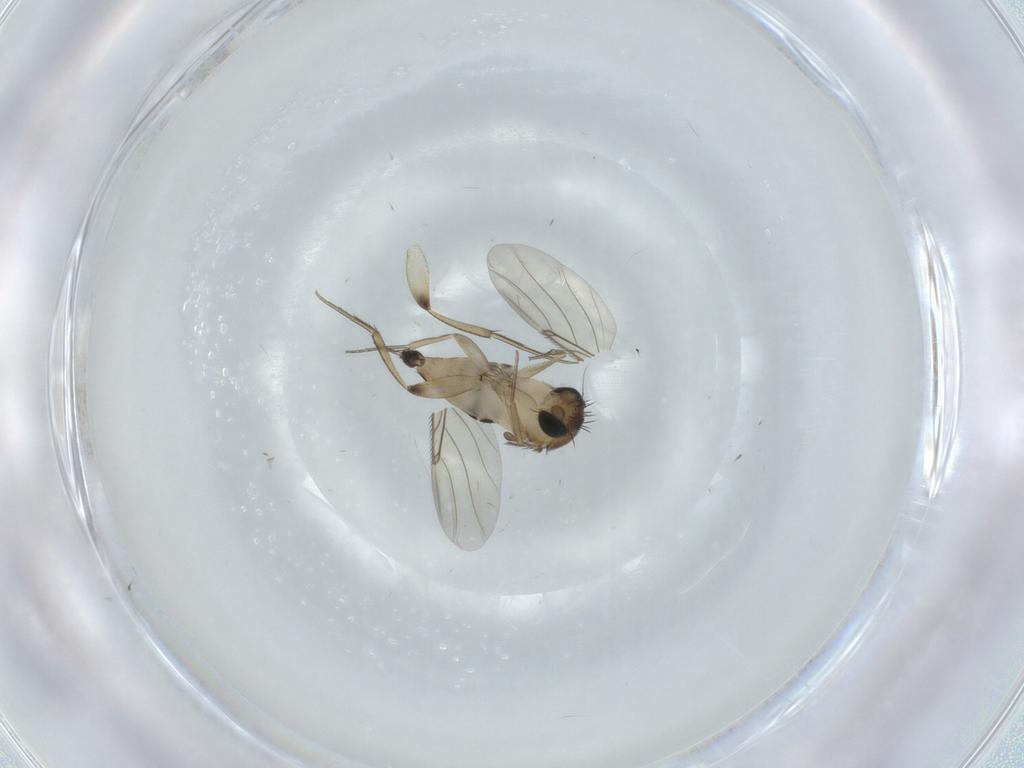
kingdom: Animalia
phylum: Arthropoda
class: Insecta
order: Diptera
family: Phoridae
